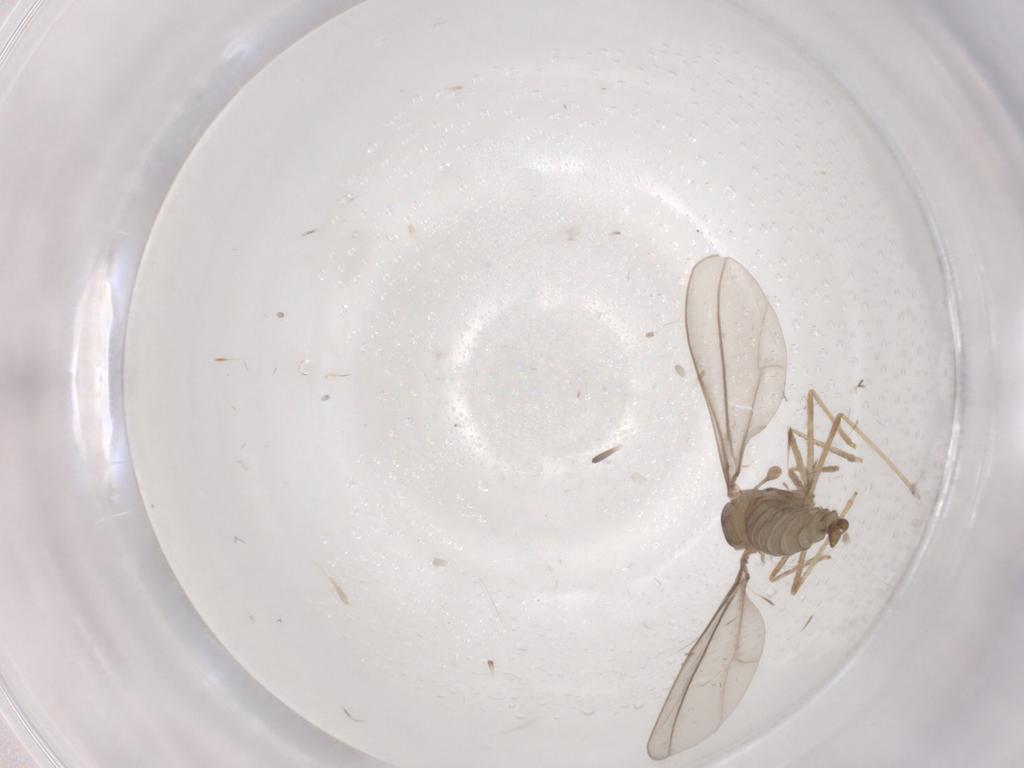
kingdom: Animalia
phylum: Arthropoda
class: Insecta
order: Diptera
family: Cecidomyiidae
